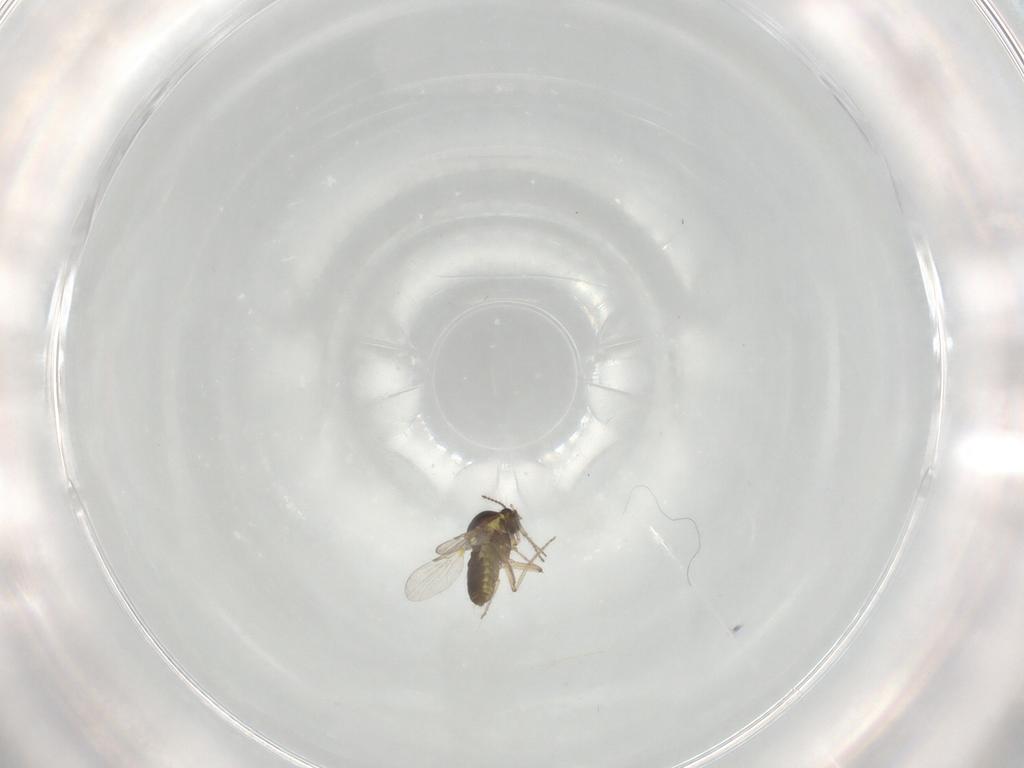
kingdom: Animalia
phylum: Arthropoda
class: Insecta
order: Diptera
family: Ceratopogonidae
